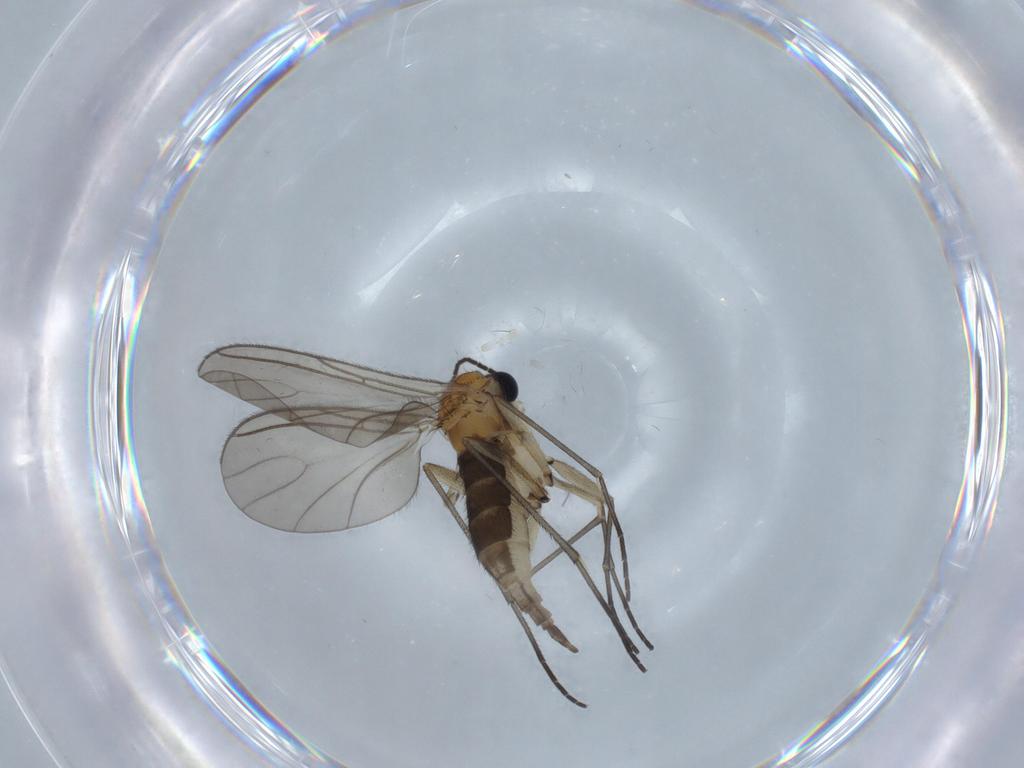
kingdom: Animalia
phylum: Arthropoda
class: Insecta
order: Diptera
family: Sciaridae
